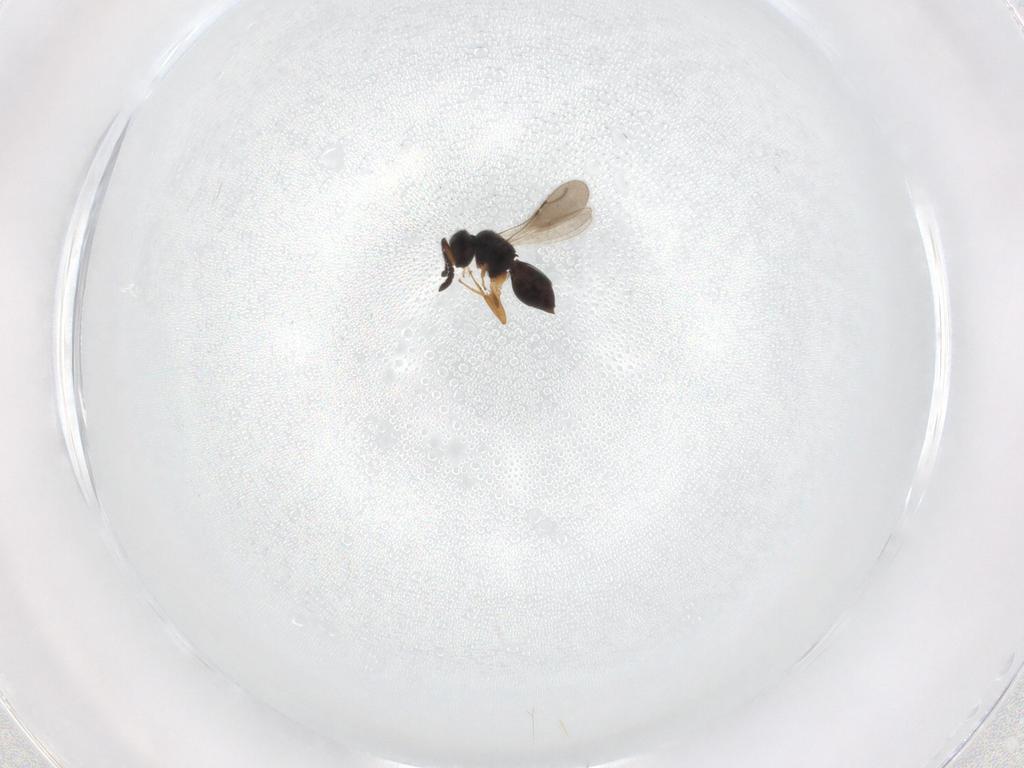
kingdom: Animalia
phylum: Arthropoda
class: Insecta
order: Hymenoptera
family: Ceraphronidae
